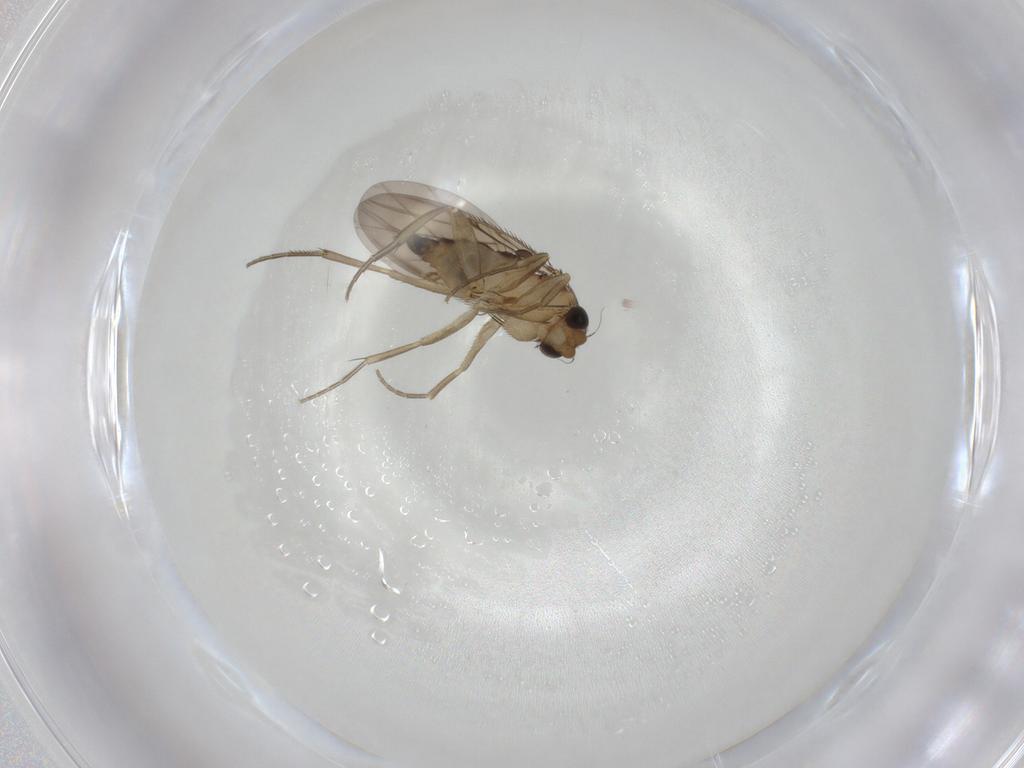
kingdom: Animalia
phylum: Arthropoda
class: Insecta
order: Diptera
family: Phoridae
